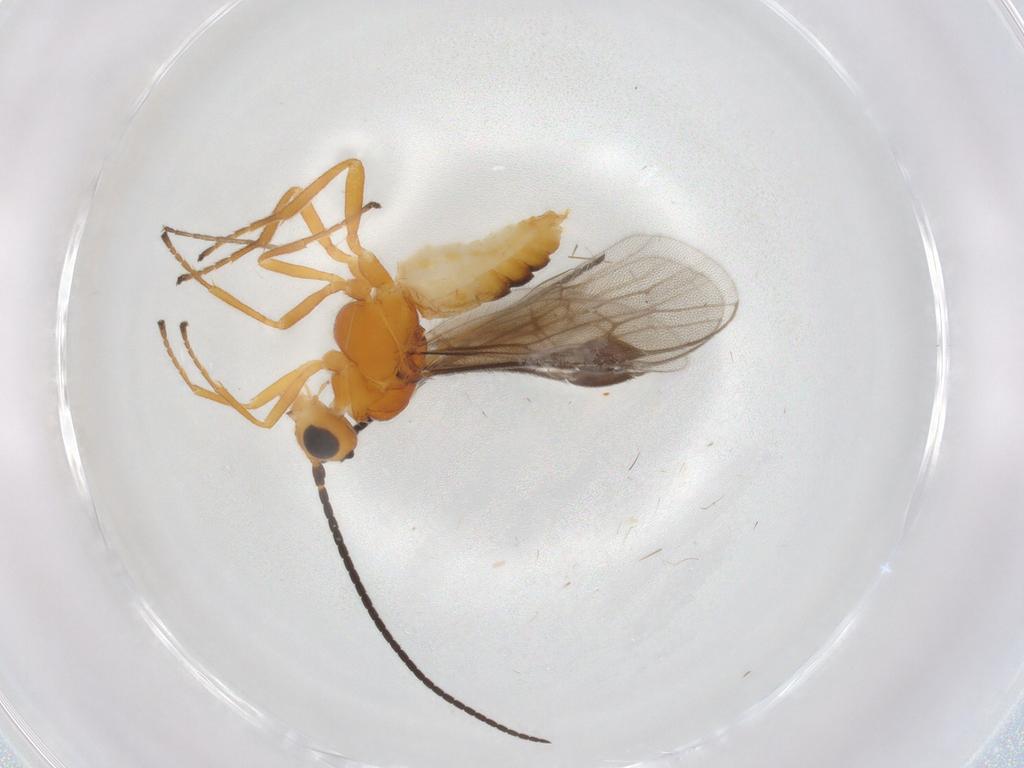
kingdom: Animalia
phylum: Arthropoda
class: Insecta
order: Hymenoptera
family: Braconidae
